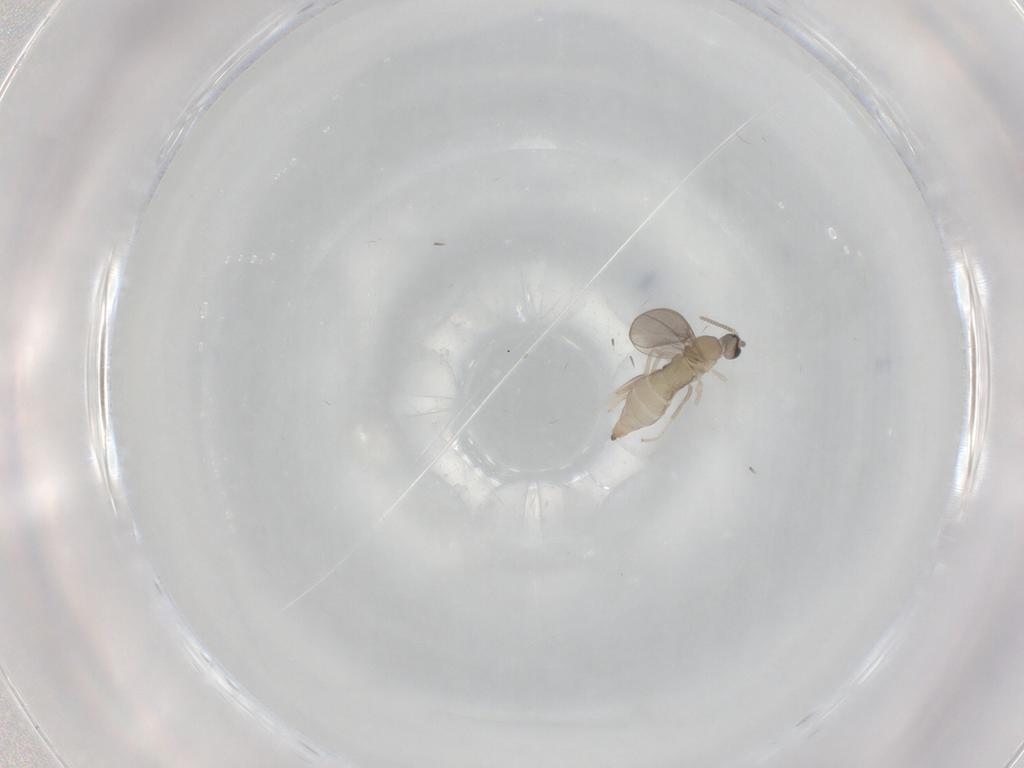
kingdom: Animalia
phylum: Arthropoda
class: Insecta
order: Diptera
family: Cecidomyiidae
